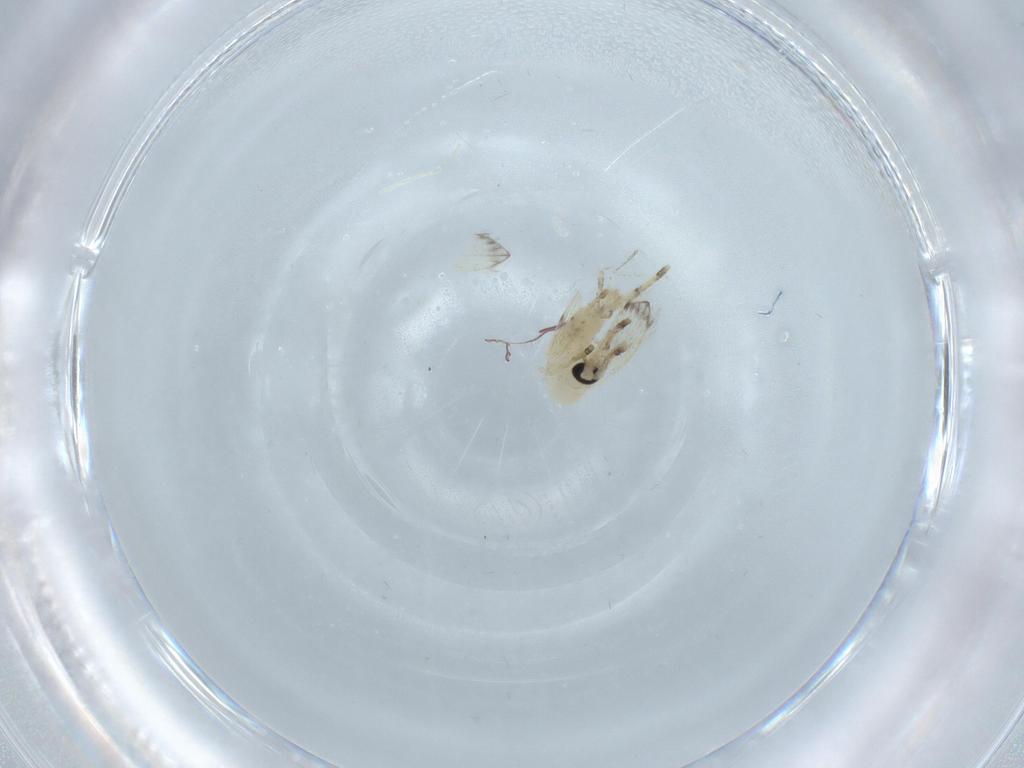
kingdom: Animalia
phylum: Arthropoda
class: Insecta
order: Diptera
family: Psychodidae
